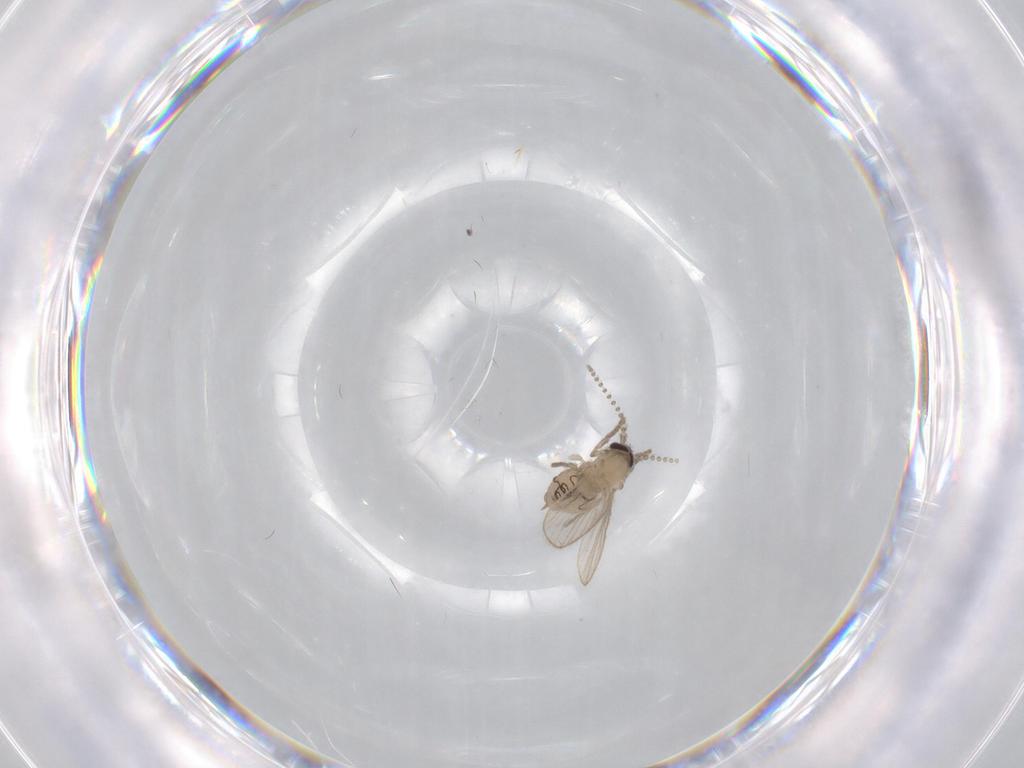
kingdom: Animalia
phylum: Arthropoda
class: Insecta
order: Diptera
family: Psychodidae
